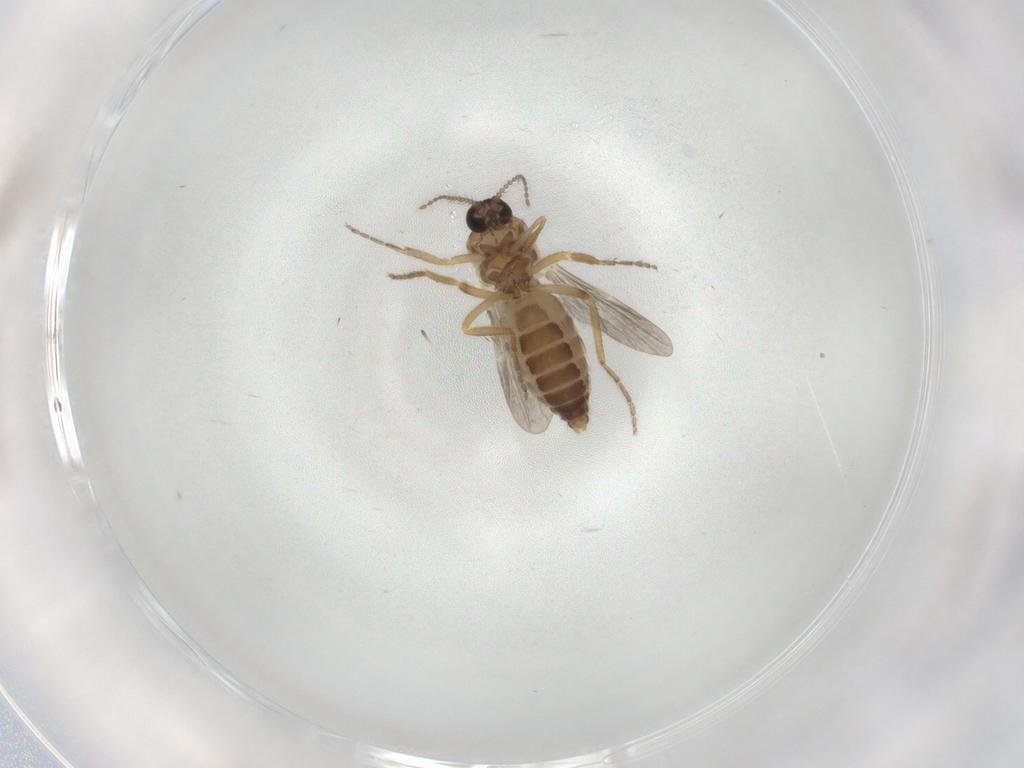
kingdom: Animalia
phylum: Arthropoda
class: Insecta
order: Diptera
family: Ceratopogonidae
